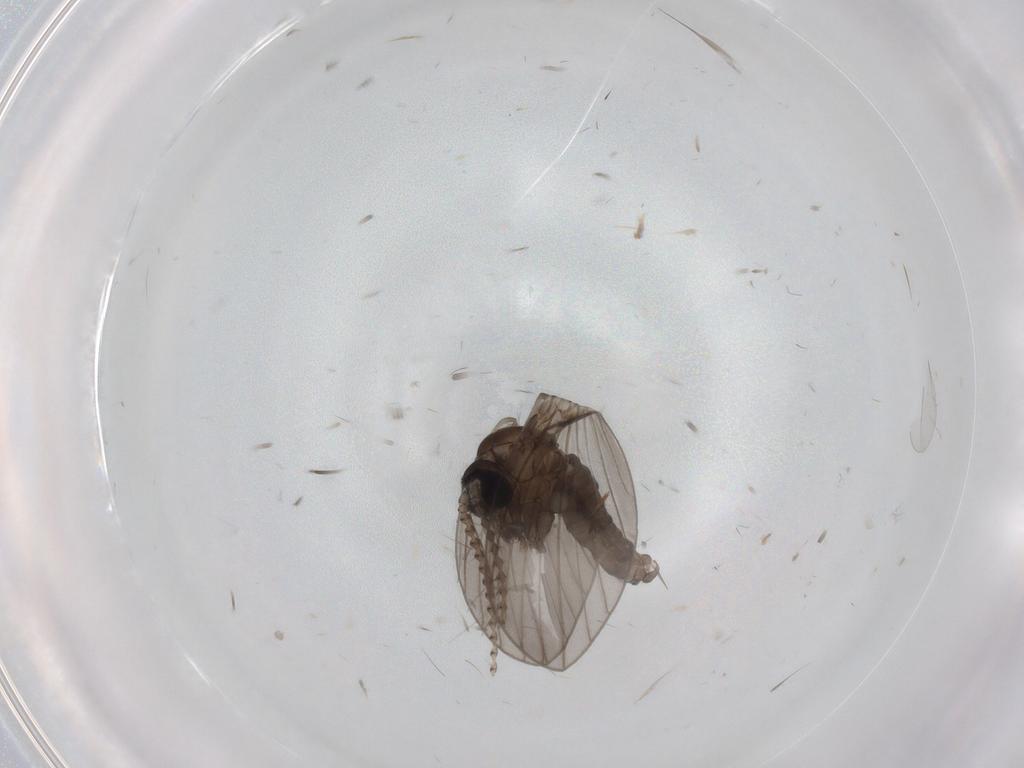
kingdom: Animalia
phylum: Arthropoda
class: Insecta
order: Diptera
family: Psychodidae
